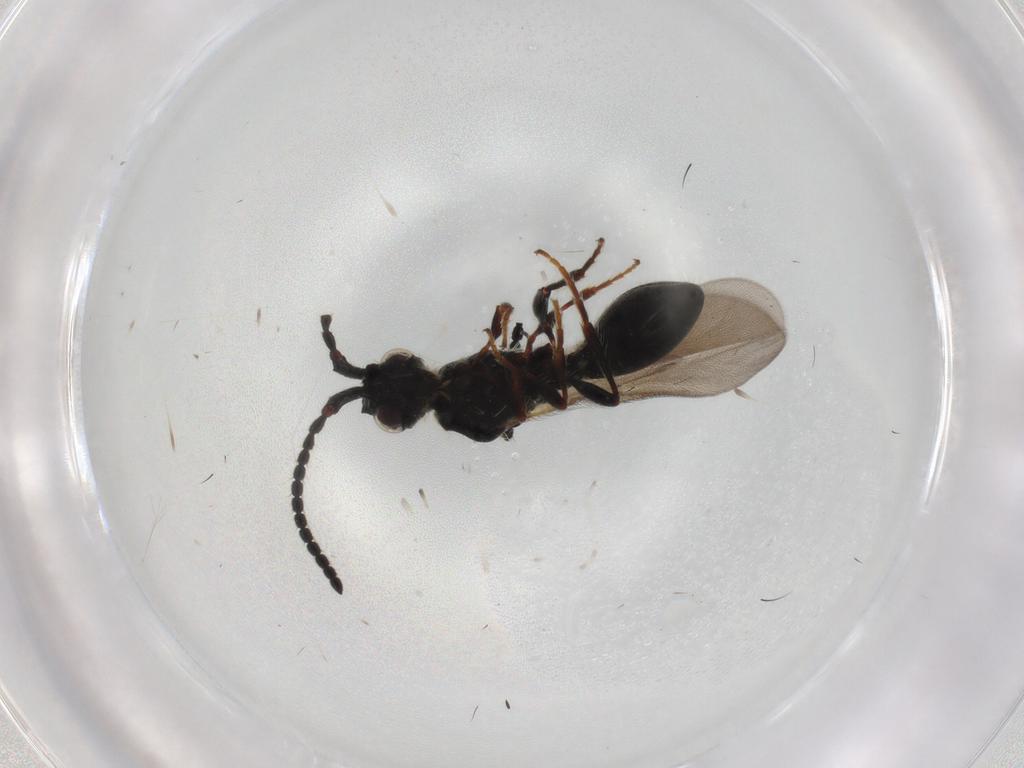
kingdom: Animalia
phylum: Arthropoda
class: Insecta
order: Hymenoptera
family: Diapriidae
